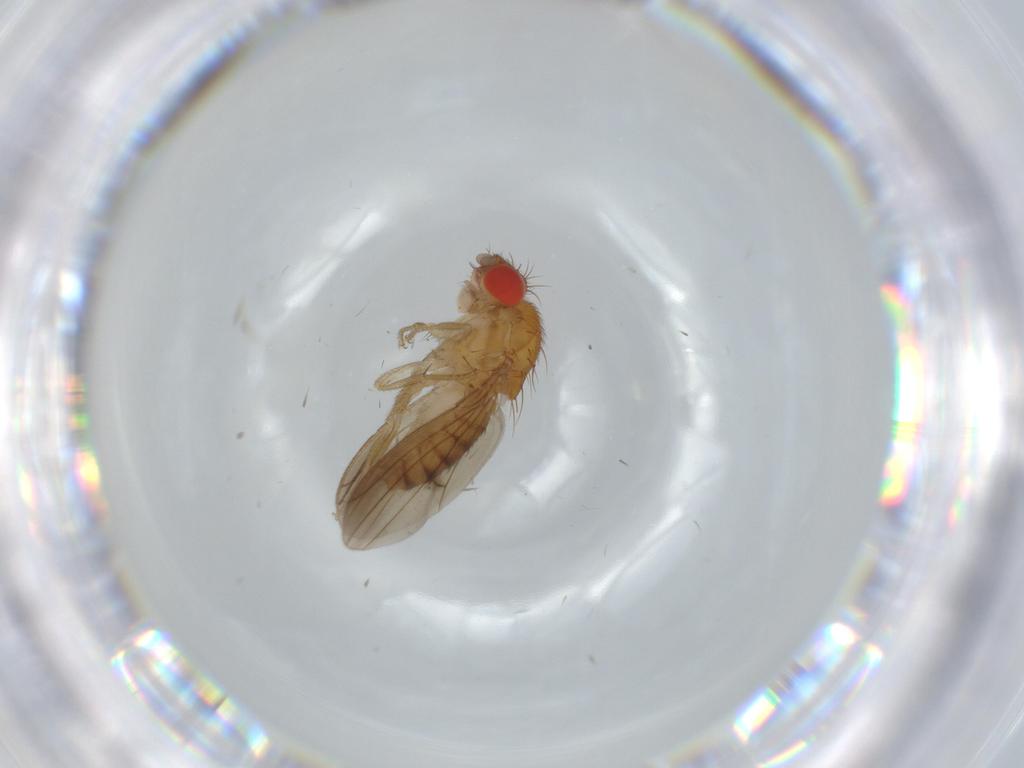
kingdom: Animalia
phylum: Arthropoda
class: Insecta
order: Diptera
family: Drosophilidae
